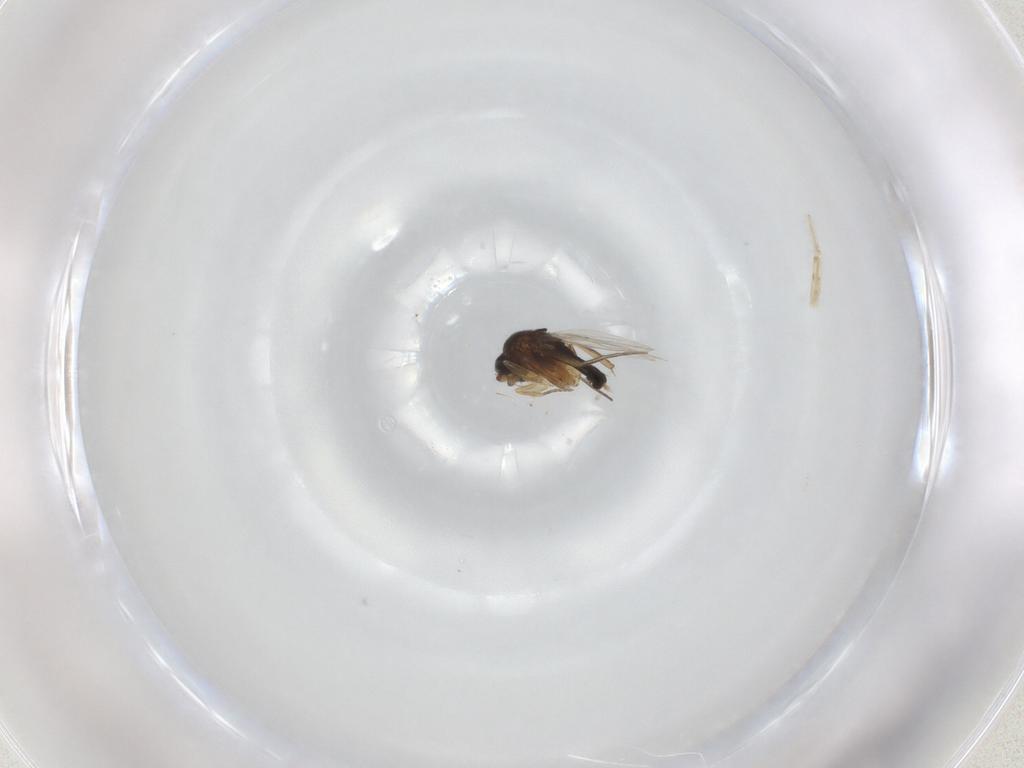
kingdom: Animalia
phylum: Arthropoda
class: Insecta
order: Diptera
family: Phoridae
